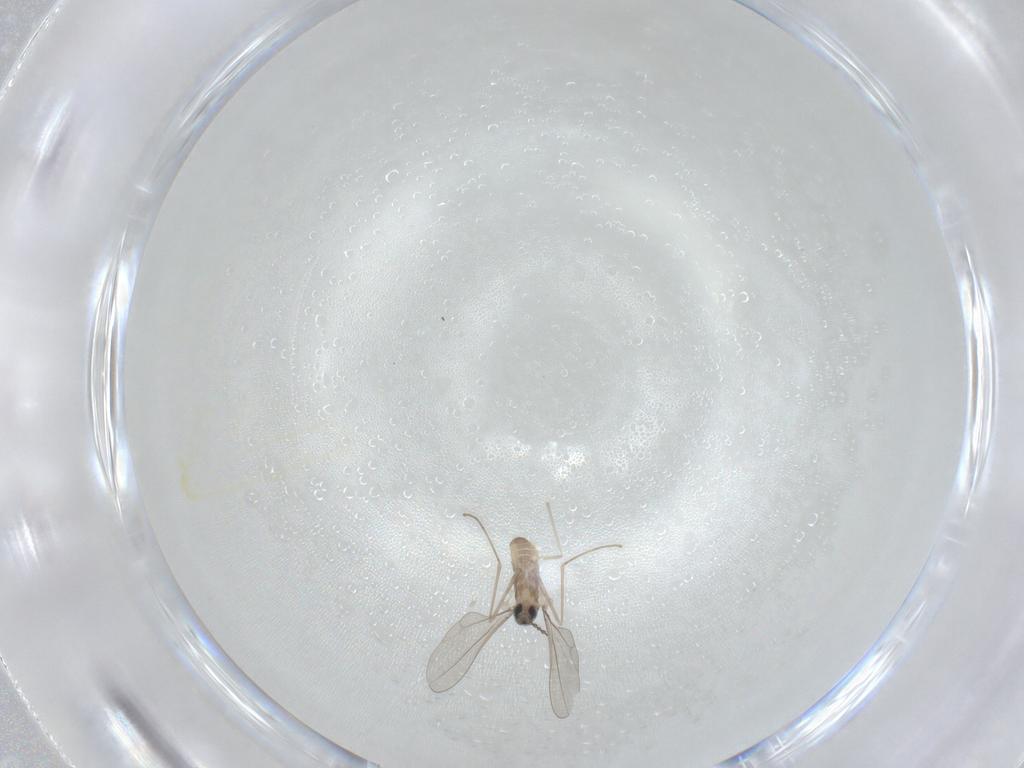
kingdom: Animalia
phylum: Arthropoda
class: Insecta
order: Diptera
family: Cecidomyiidae
